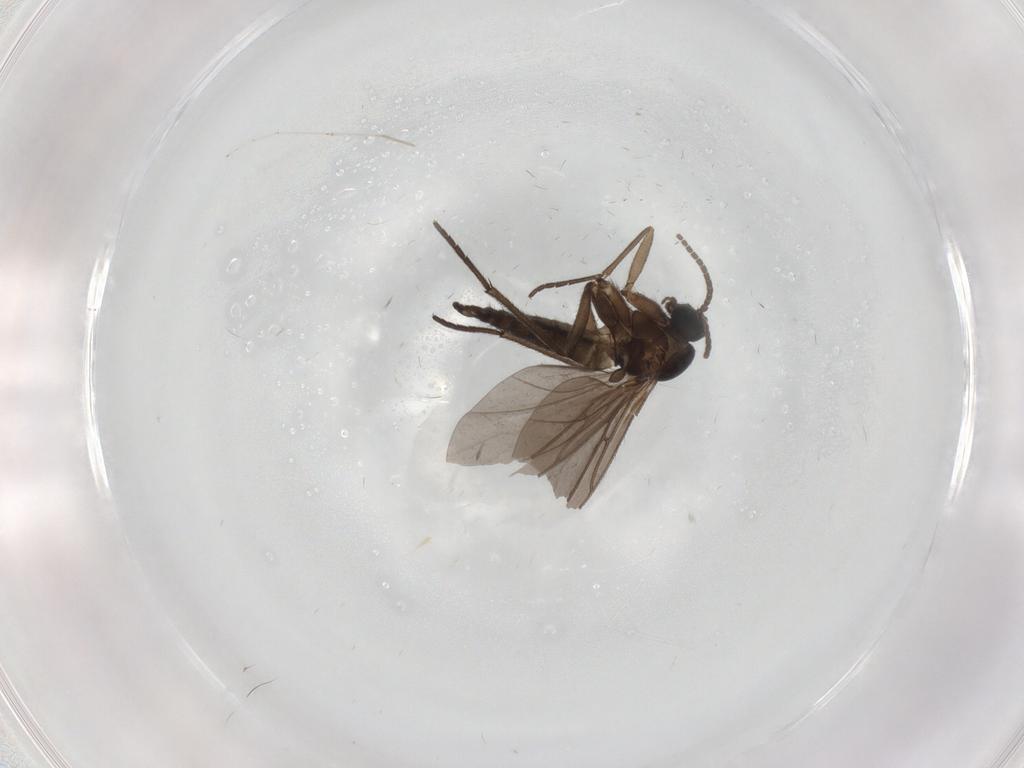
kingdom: Animalia
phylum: Arthropoda
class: Insecta
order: Diptera
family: Sciaridae
